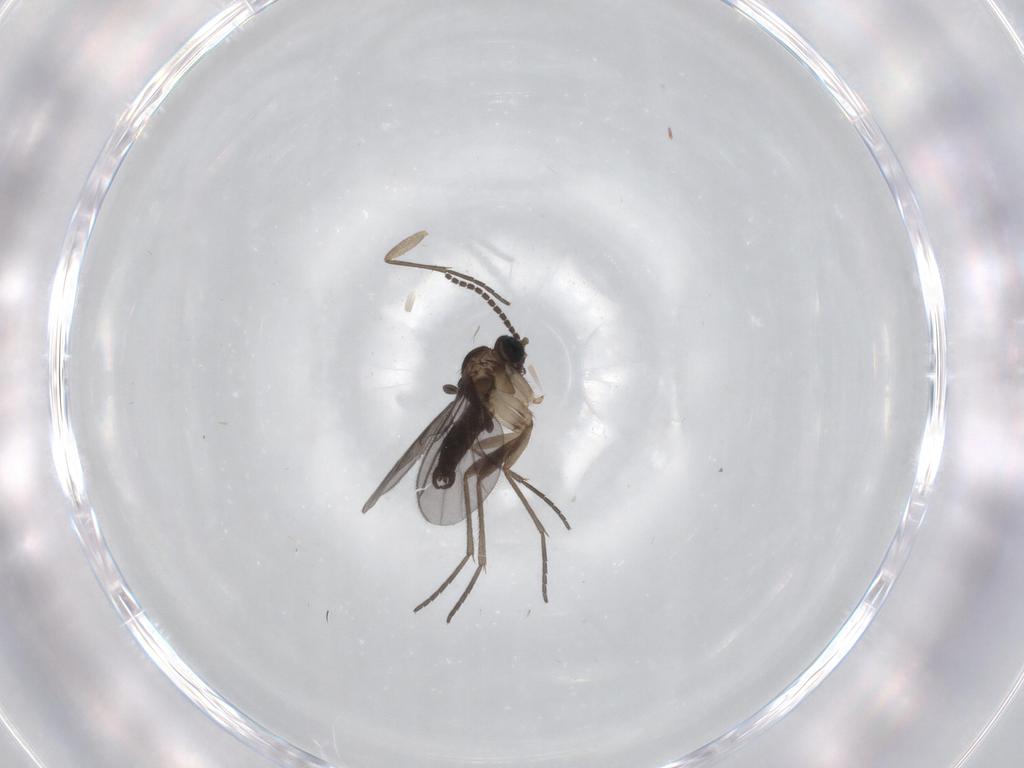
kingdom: Animalia
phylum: Arthropoda
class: Insecta
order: Diptera
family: Sciaridae
